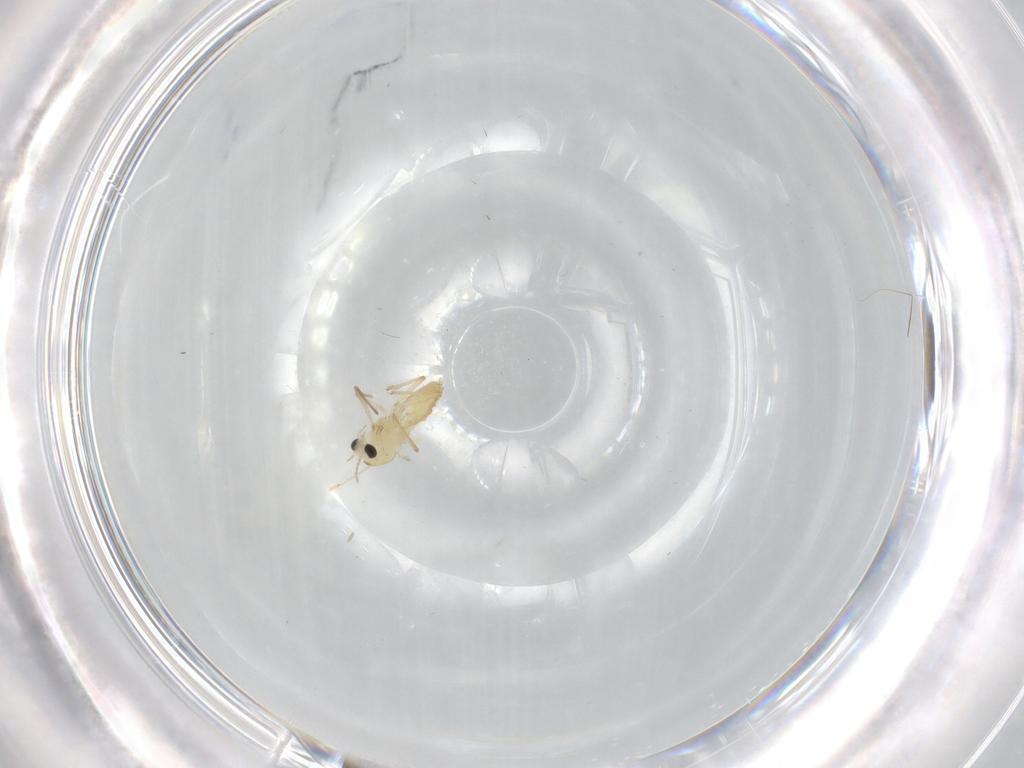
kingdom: Animalia
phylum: Arthropoda
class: Insecta
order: Diptera
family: Chironomidae
